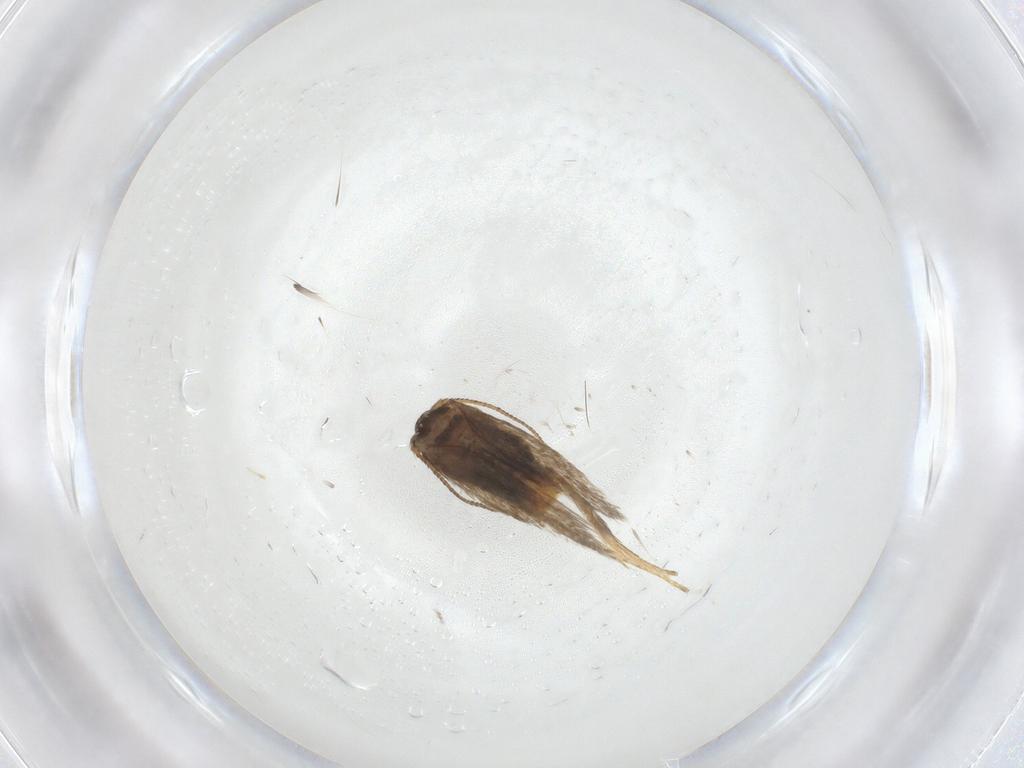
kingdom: Animalia
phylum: Arthropoda
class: Insecta
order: Lepidoptera
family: Nepticulidae
